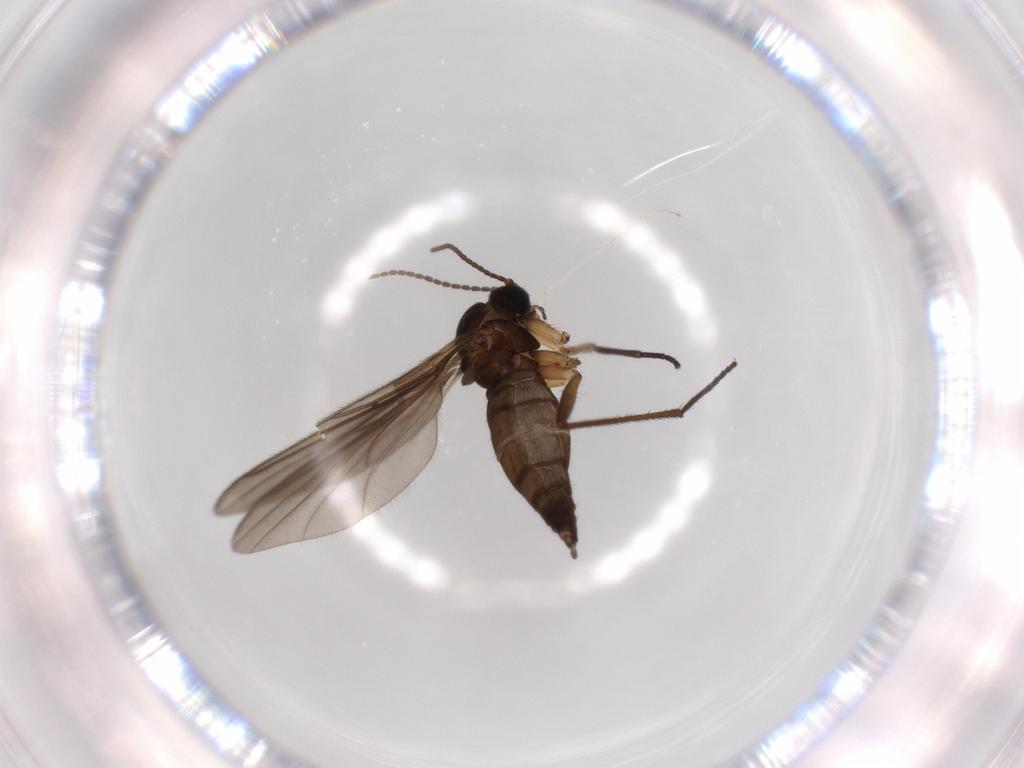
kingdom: Animalia
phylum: Arthropoda
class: Insecta
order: Diptera
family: Sciaridae
